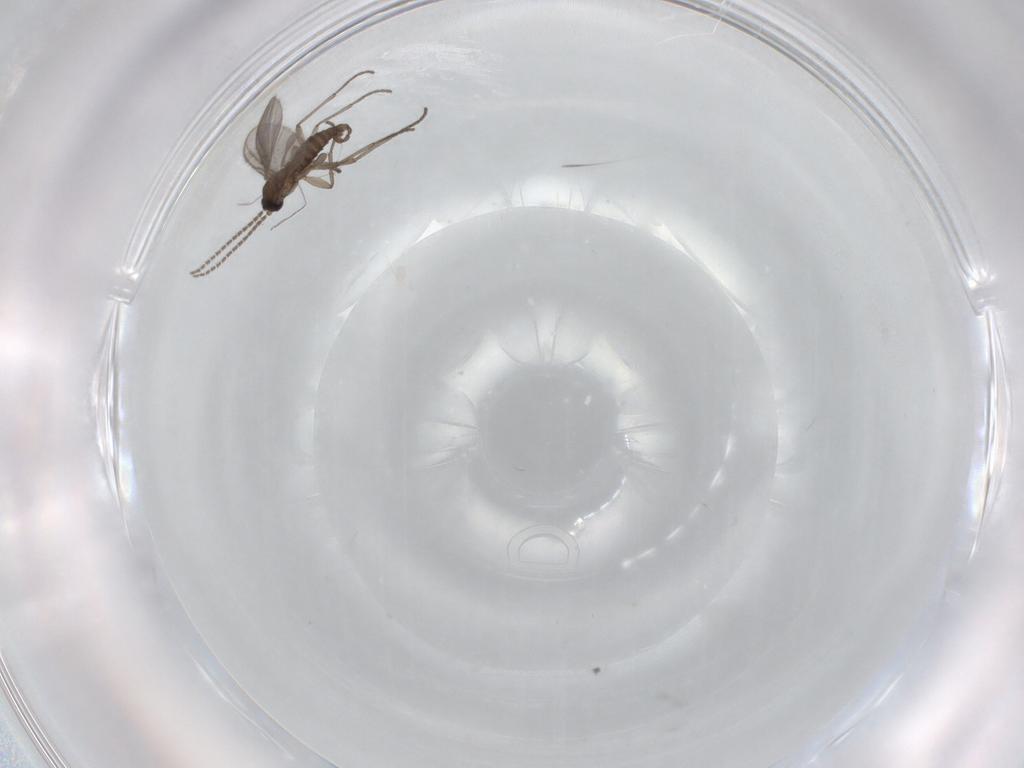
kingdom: Animalia
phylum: Arthropoda
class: Insecta
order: Diptera
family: Sciaridae
